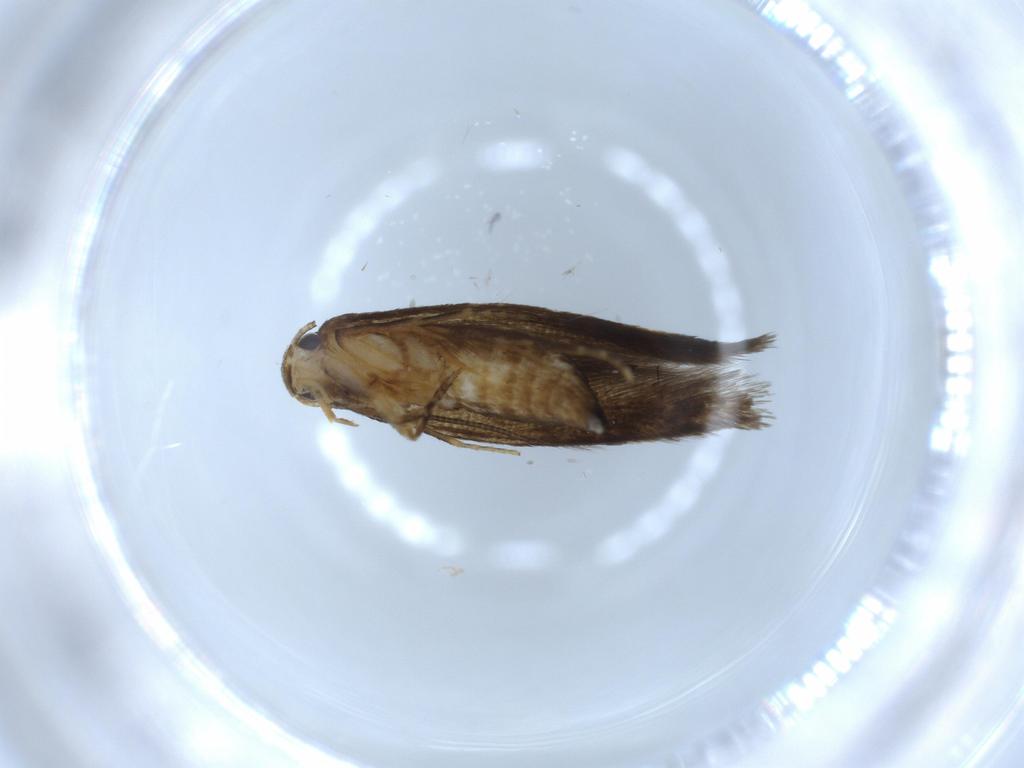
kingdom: Animalia
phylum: Arthropoda
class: Insecta
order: Lepidoptera
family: Tineidae
